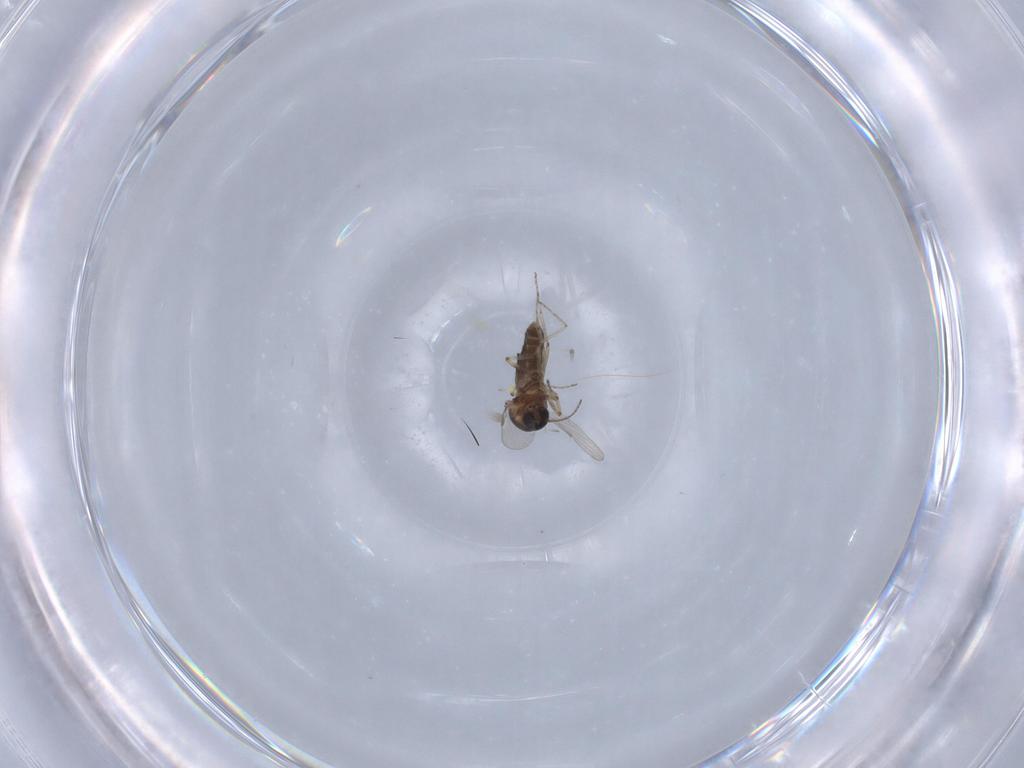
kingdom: Animalia
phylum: Arthropoda
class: Insecta
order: Diptera
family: Ceratopogonidae
